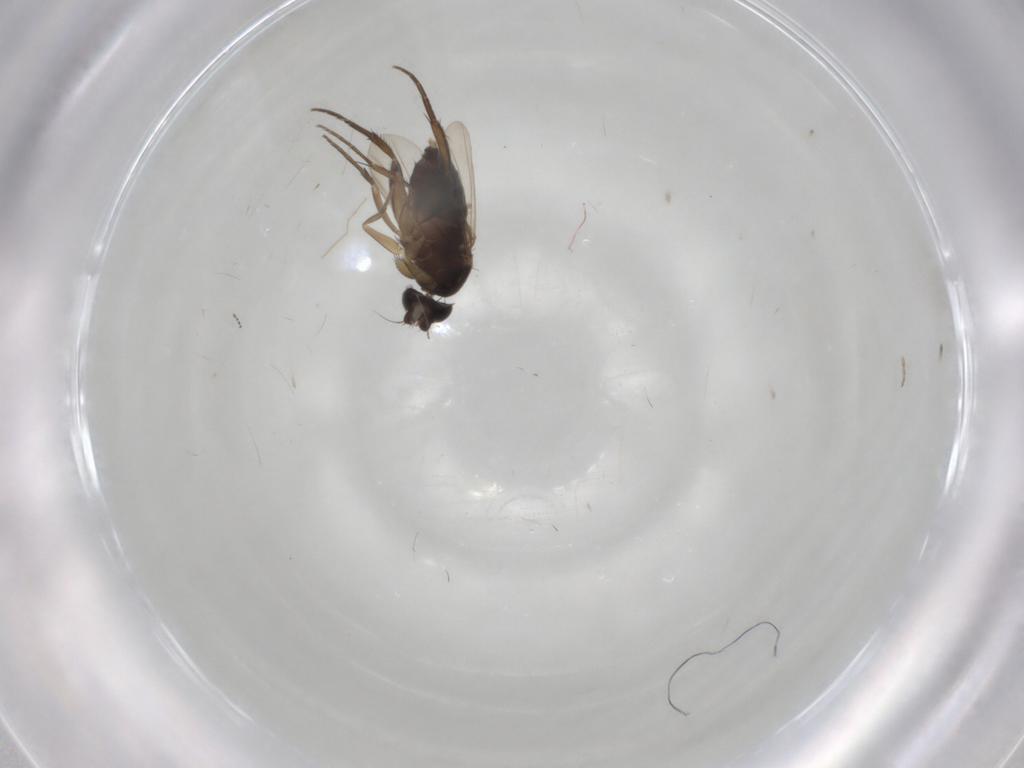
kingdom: Animalia
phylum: Arthropoda
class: Insecta
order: Diptera
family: Phoridae
